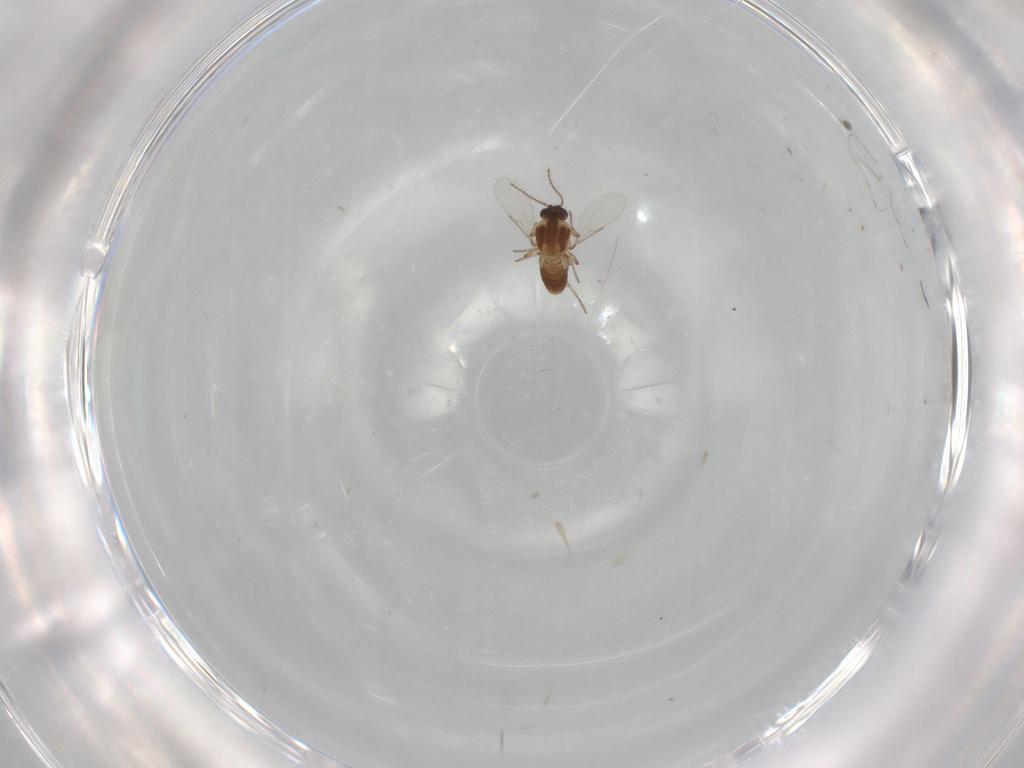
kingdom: Animalia
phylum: Arthropoda
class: Insecta
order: Diptera
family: Ceratopogonidae
